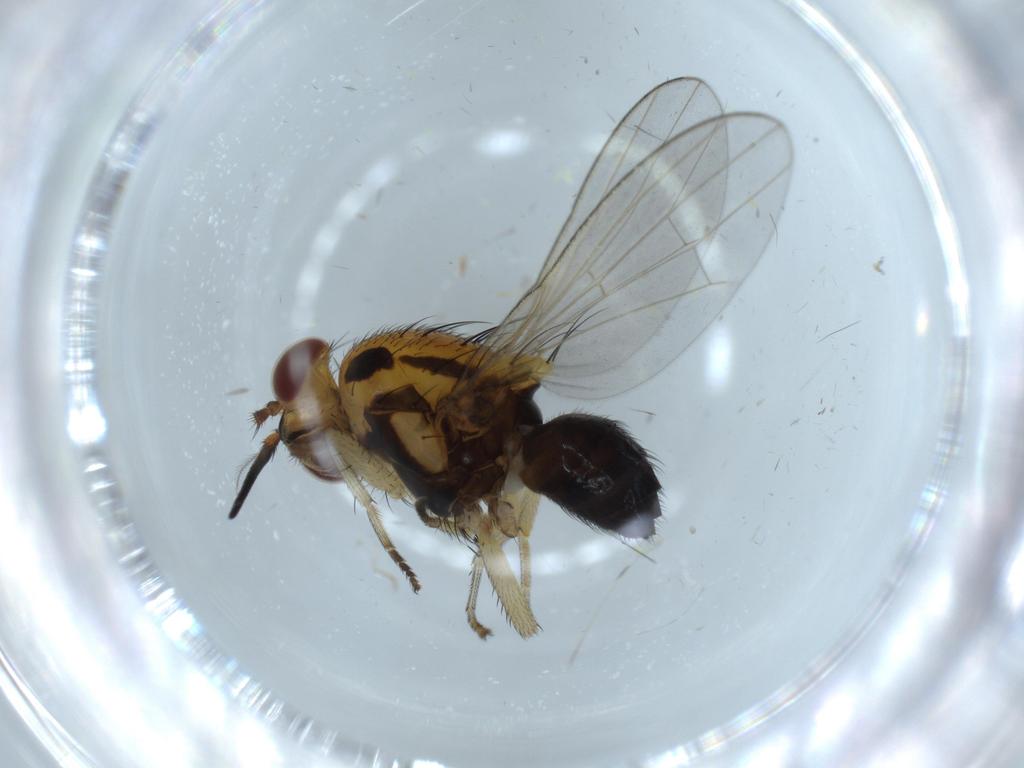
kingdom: Animalia
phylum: Arthropoda
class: Insecta
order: Diptera
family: Lauxaniidae
